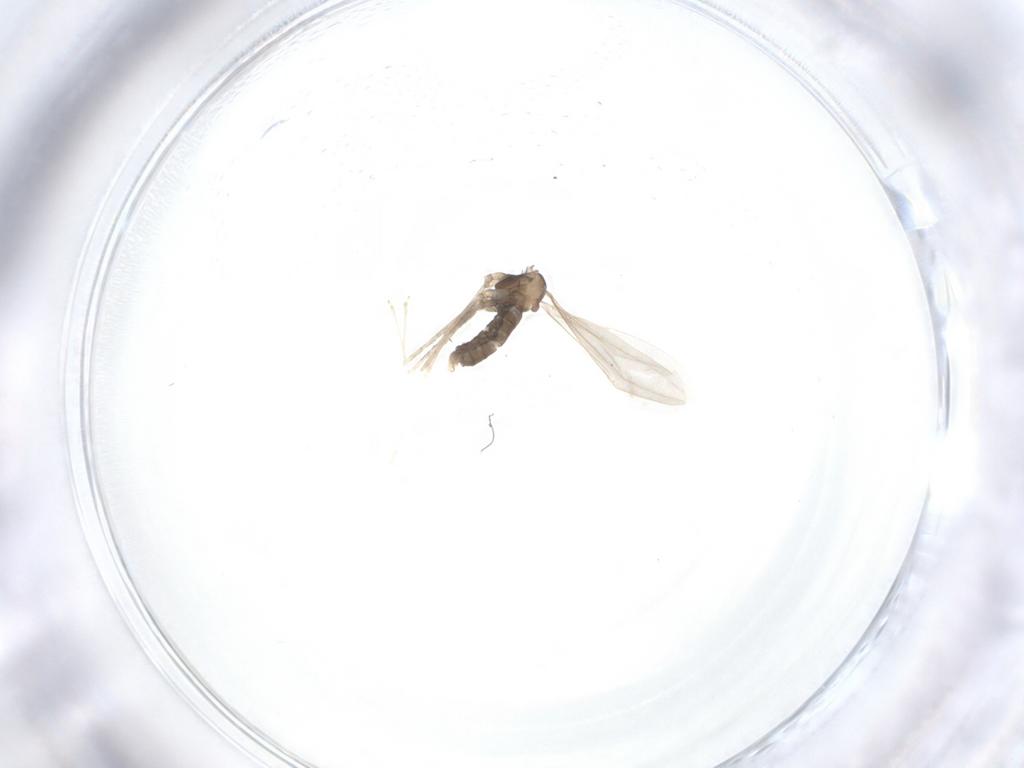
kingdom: Animalia
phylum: Arthropoda
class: Insecta
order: Diptera
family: Cecidomyiidae
